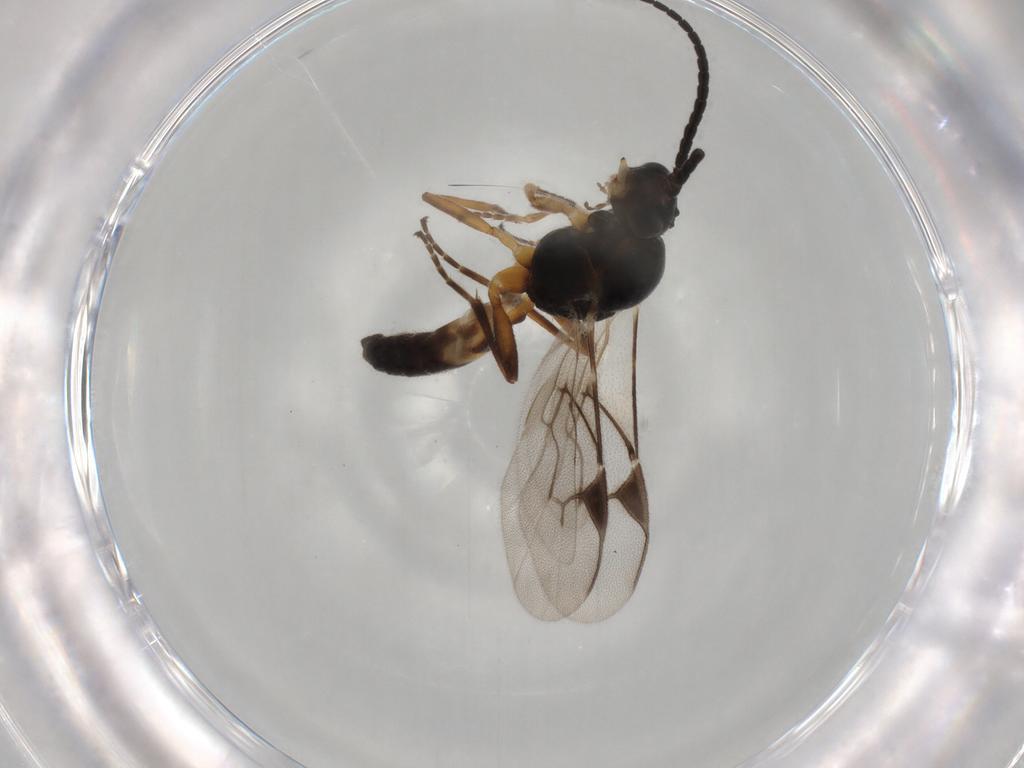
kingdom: Animalia
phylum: Arthropoda
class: Insecta
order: Hymenoptera
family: Braconidae
